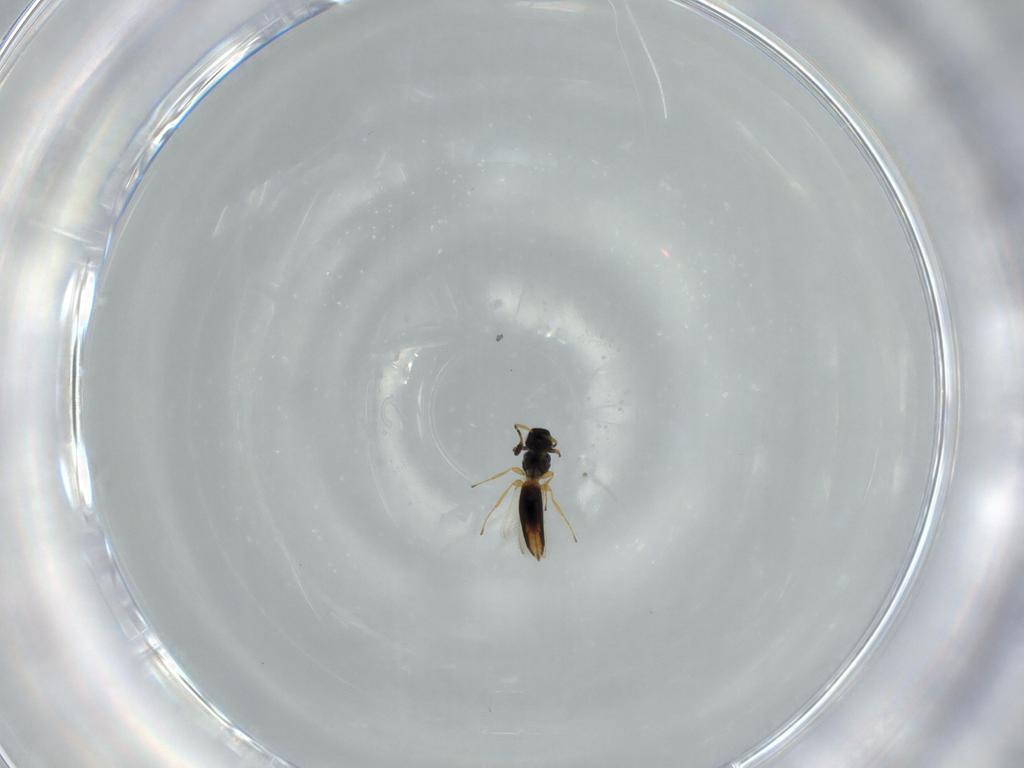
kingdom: Animalia
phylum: Arthropoda
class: Insecta
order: Hymenoptera
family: Scelionidae
